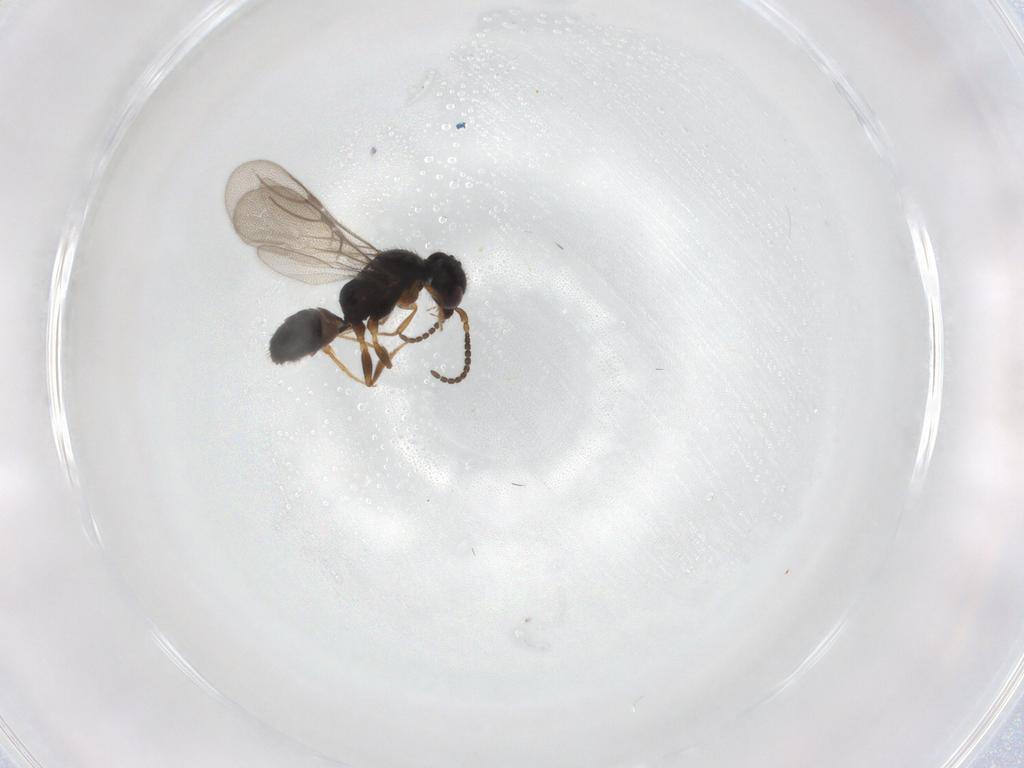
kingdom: Animalia
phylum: Arthropoda
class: Insecta
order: Hymenoptera
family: Bethylidae
